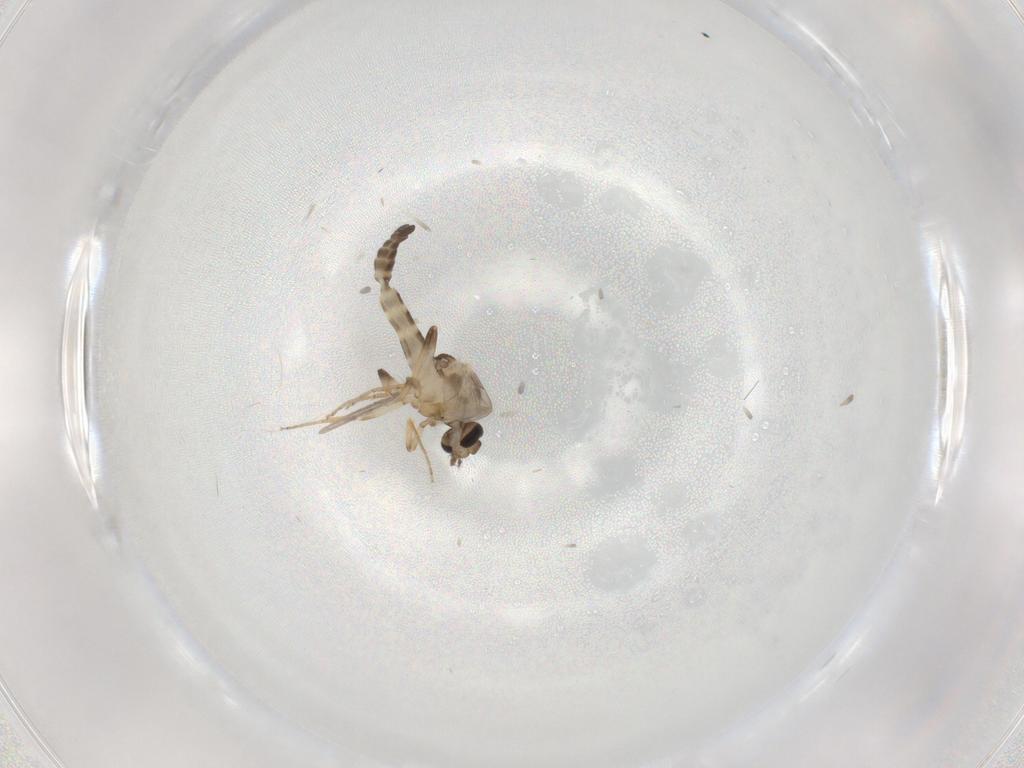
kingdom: Animalia
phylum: Arthropoda
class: Insecta
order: Diptera
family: Ceratopogonidae
